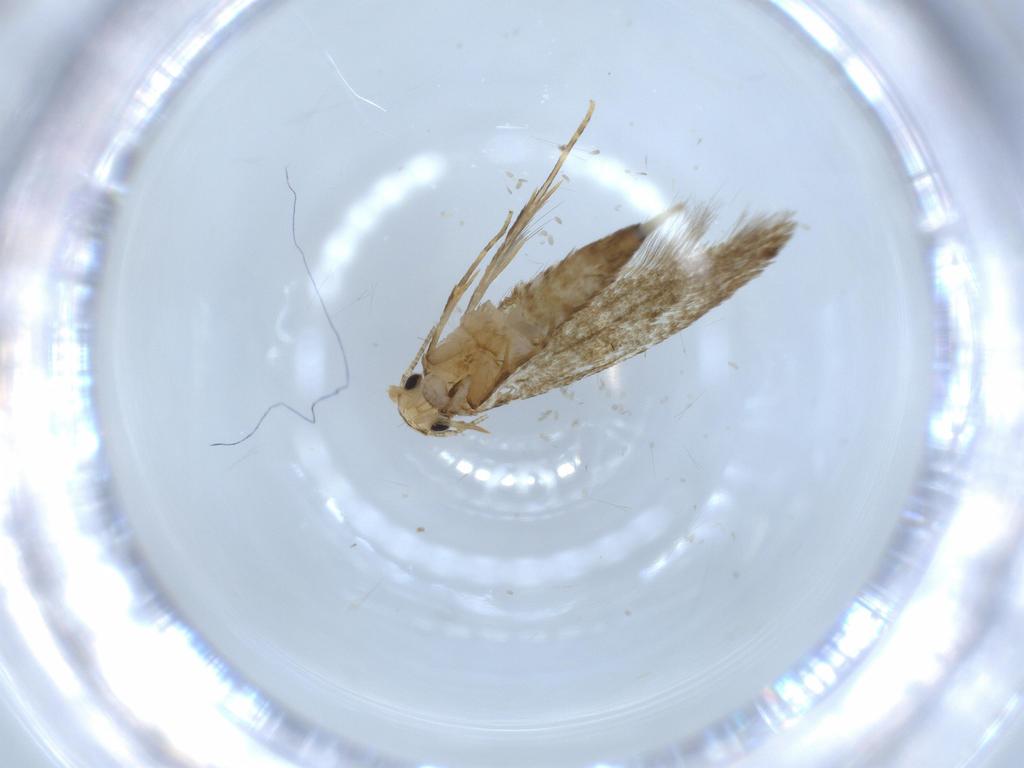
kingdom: Animalia
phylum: Arthropoda
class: Insecta
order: Lepidoptera
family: Tineidae
